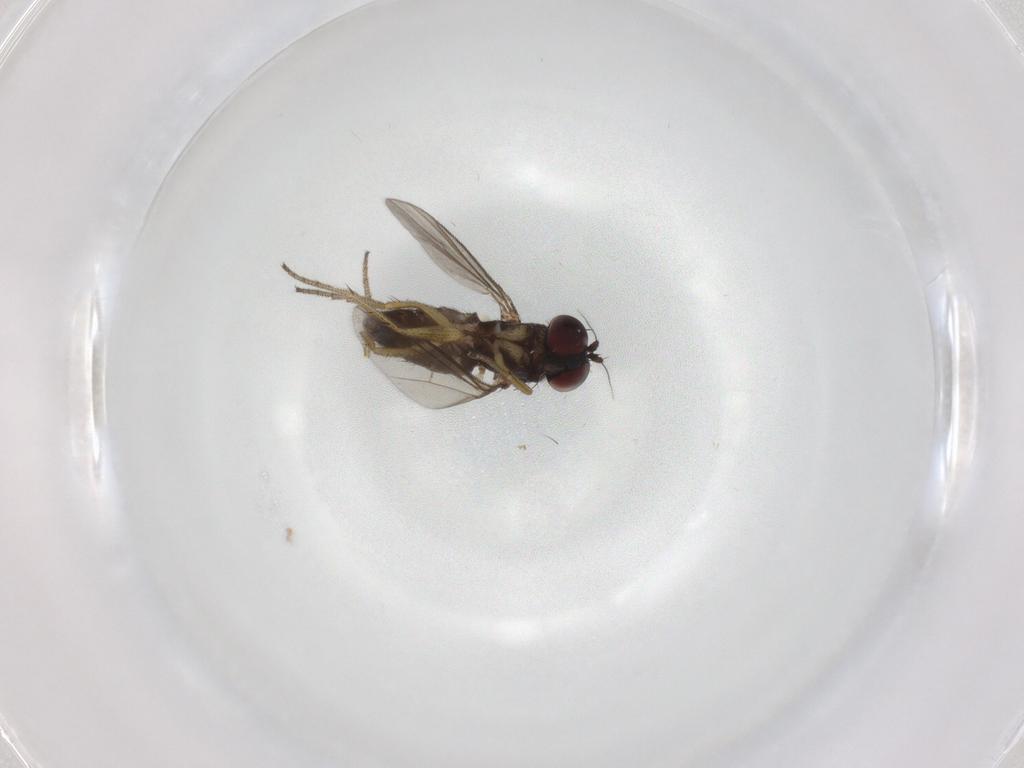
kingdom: Animalia
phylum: Arthropoda
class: Insecta
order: Diptera
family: Dolichopodidae
